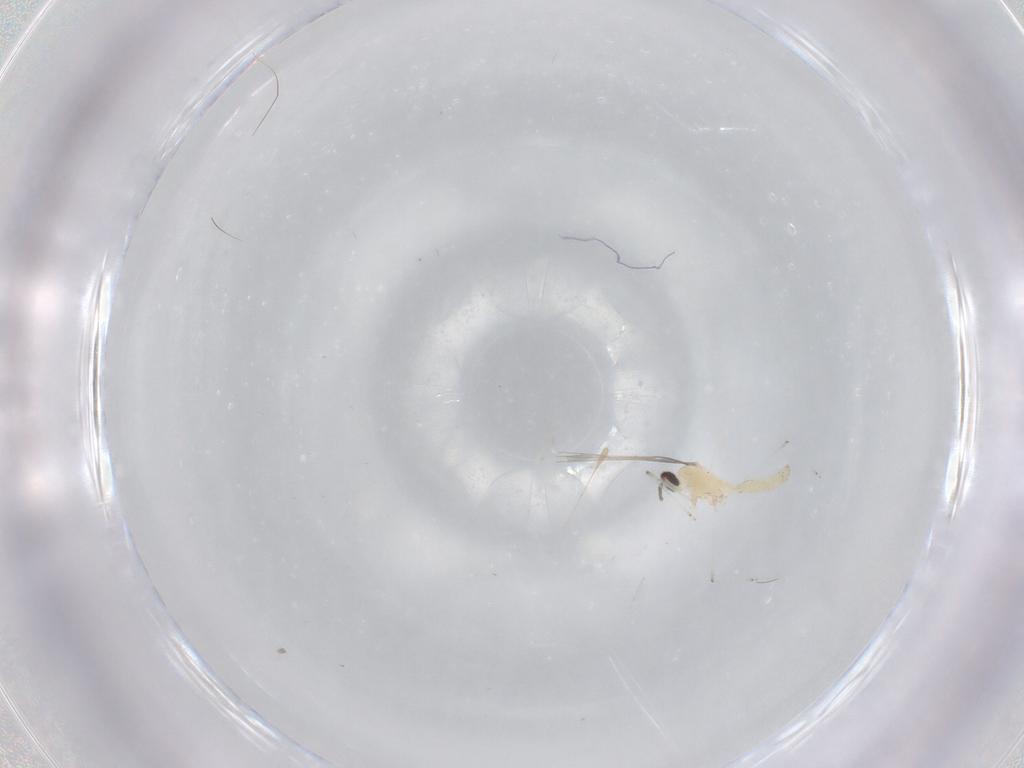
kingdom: Animalia
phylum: Arthropoda
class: Insecta
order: Diptera
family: Cecidomyiidae
